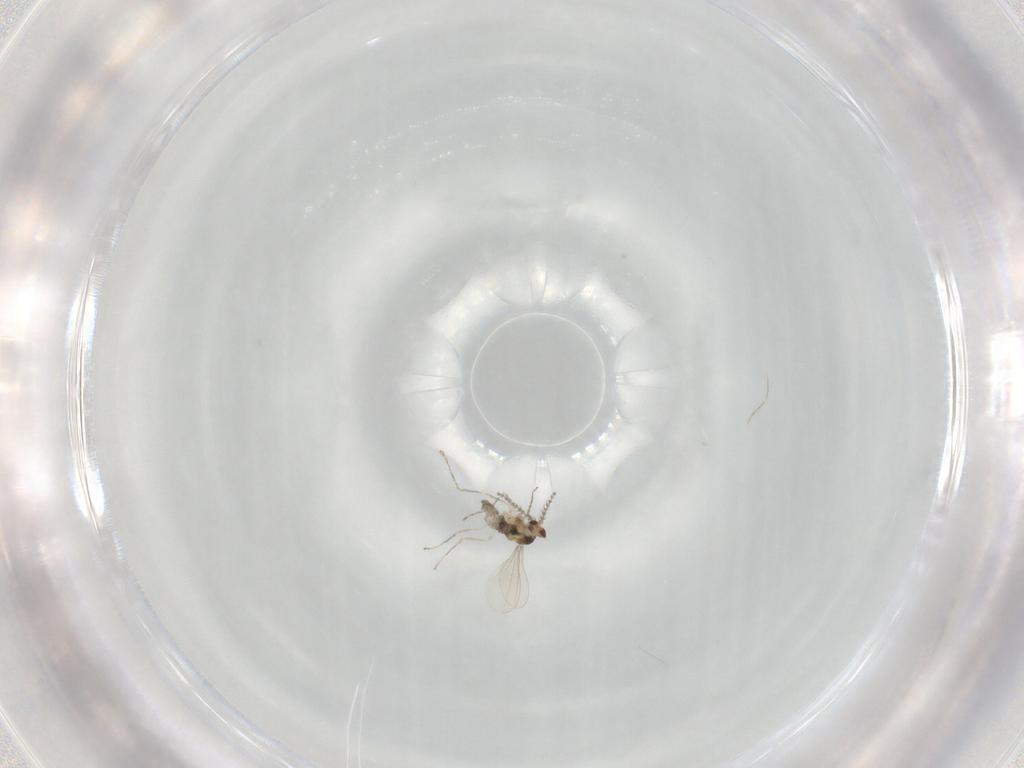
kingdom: Animalia
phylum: Arthropoda
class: Insecta
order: Diptera
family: Cecidomyiidae
